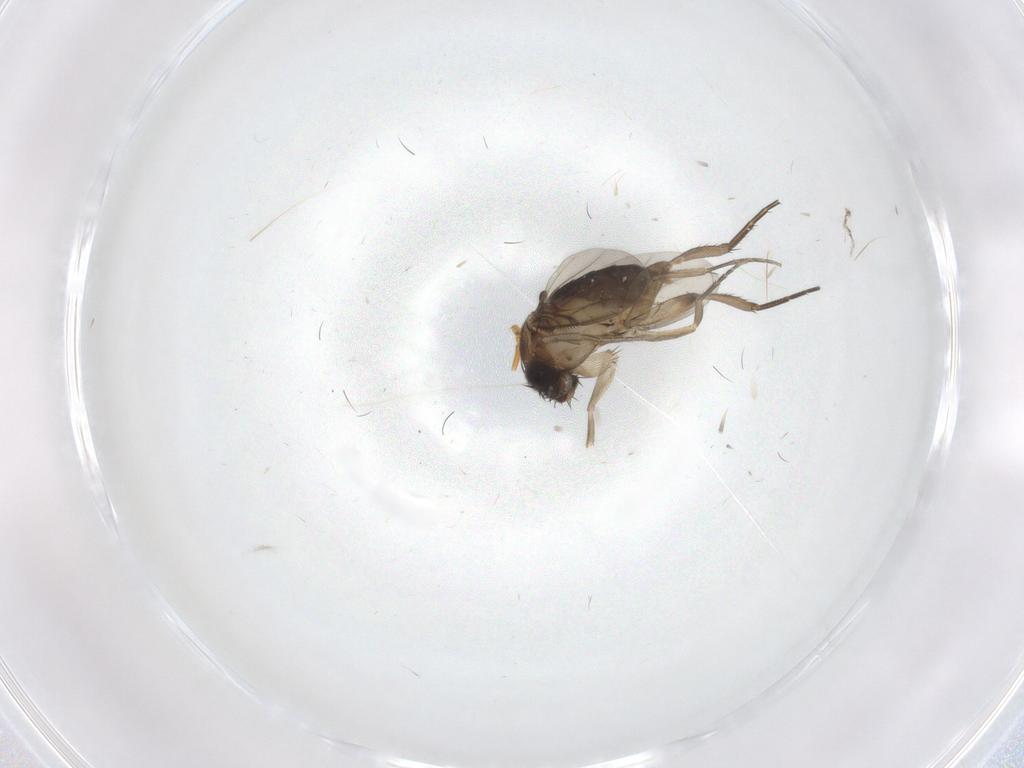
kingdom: Animalia
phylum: Arthropoda
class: Insecta
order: Diptera
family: Phoridae
